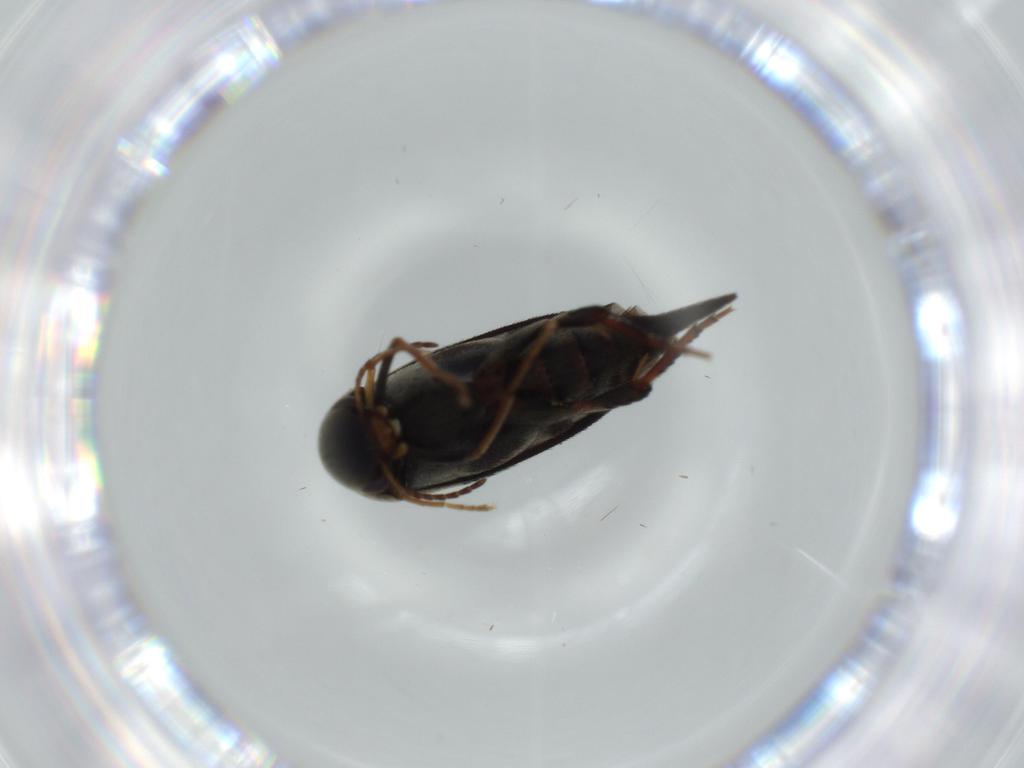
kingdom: Animalia
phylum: Arthropoda
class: Insecta
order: Coleoptera
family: Mordellidae
